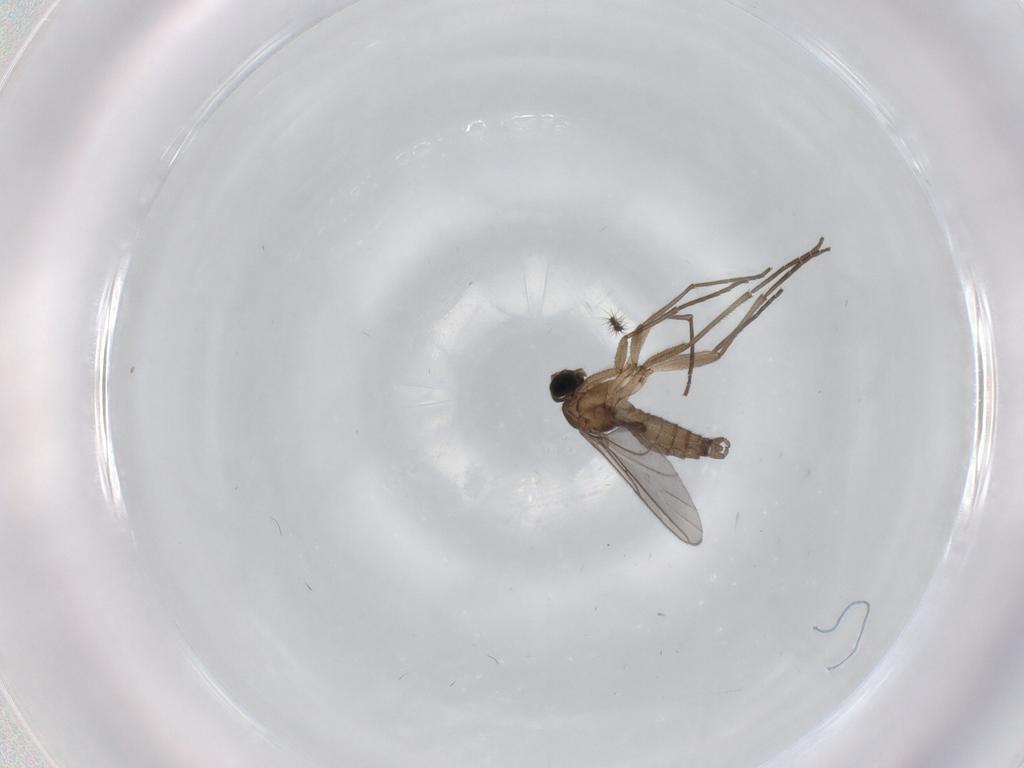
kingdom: Animalia
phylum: Arthropoda
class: Insecta
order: Diptera
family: Sciaridae
